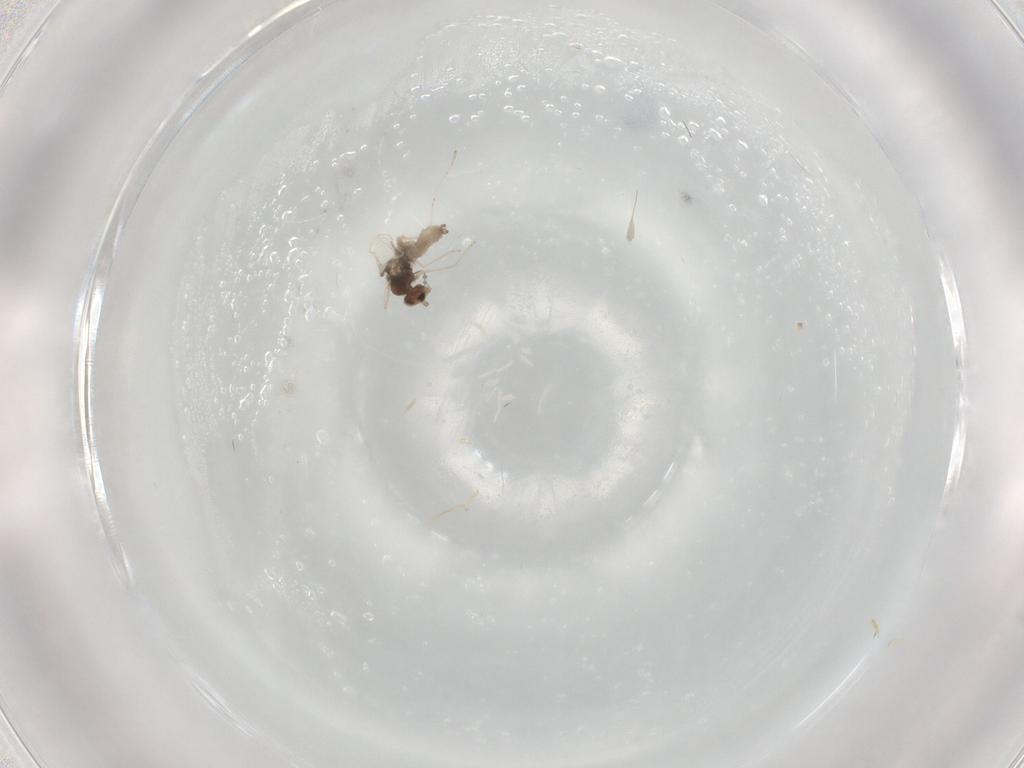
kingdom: Animalia
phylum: Arthropoda
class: Insecta
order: Diptera
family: Cecidomyiidae
